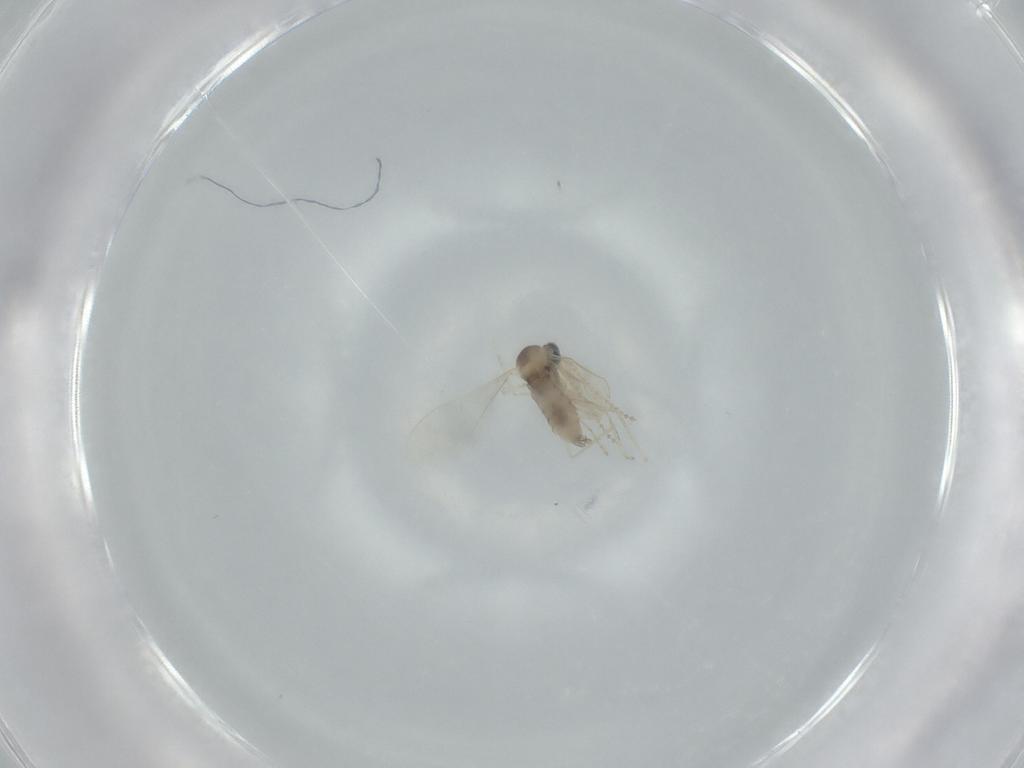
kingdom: Animalia
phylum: Arthropoda
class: Insecta
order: Diptera
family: Cecidomyiidae
